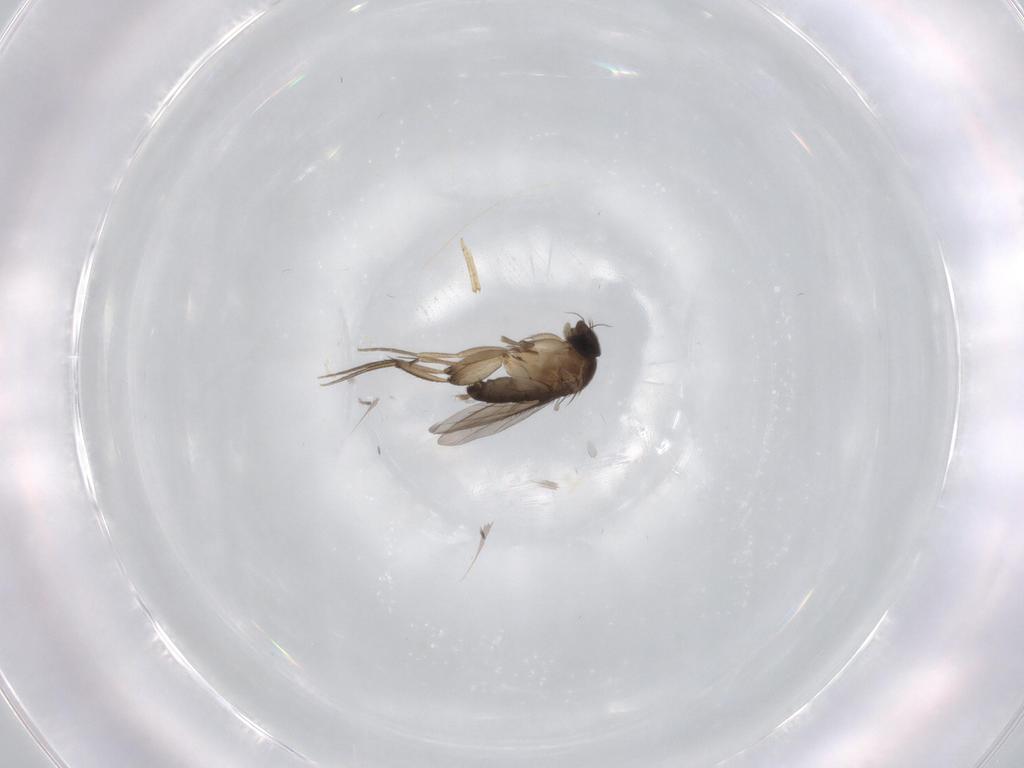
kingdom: Animalia
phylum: Arthropoda
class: Insecta
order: Diptera
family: Phoridae
